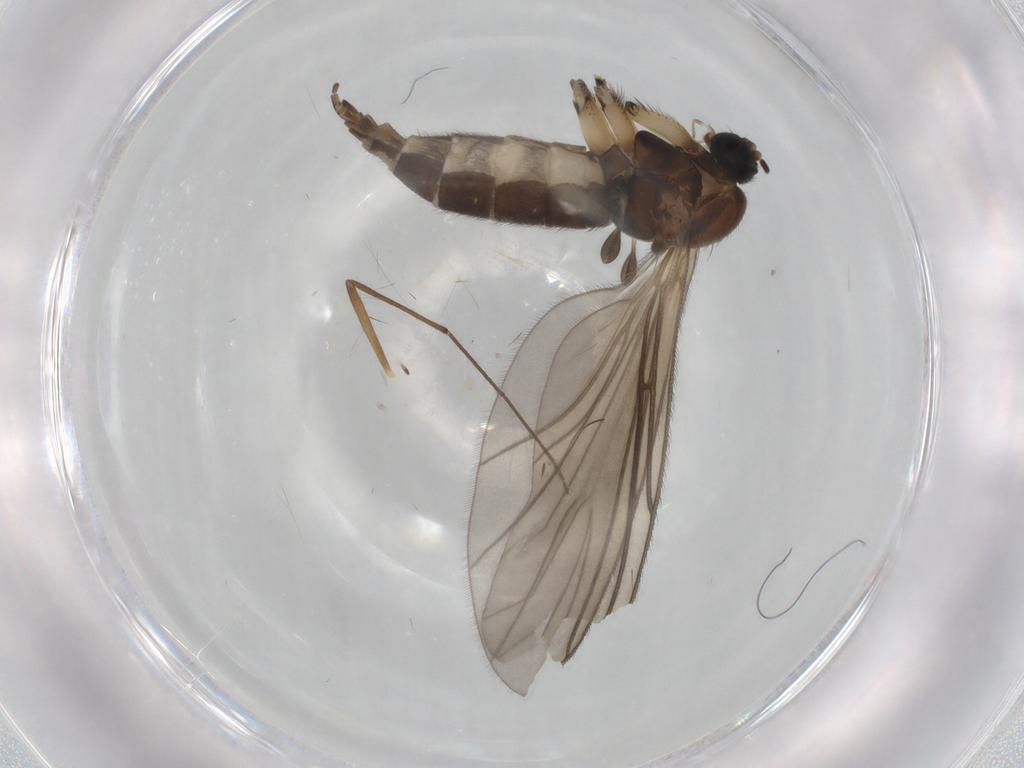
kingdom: Animalia
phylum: Arthropoda
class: Insecta
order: Diptera
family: Sciaridae
